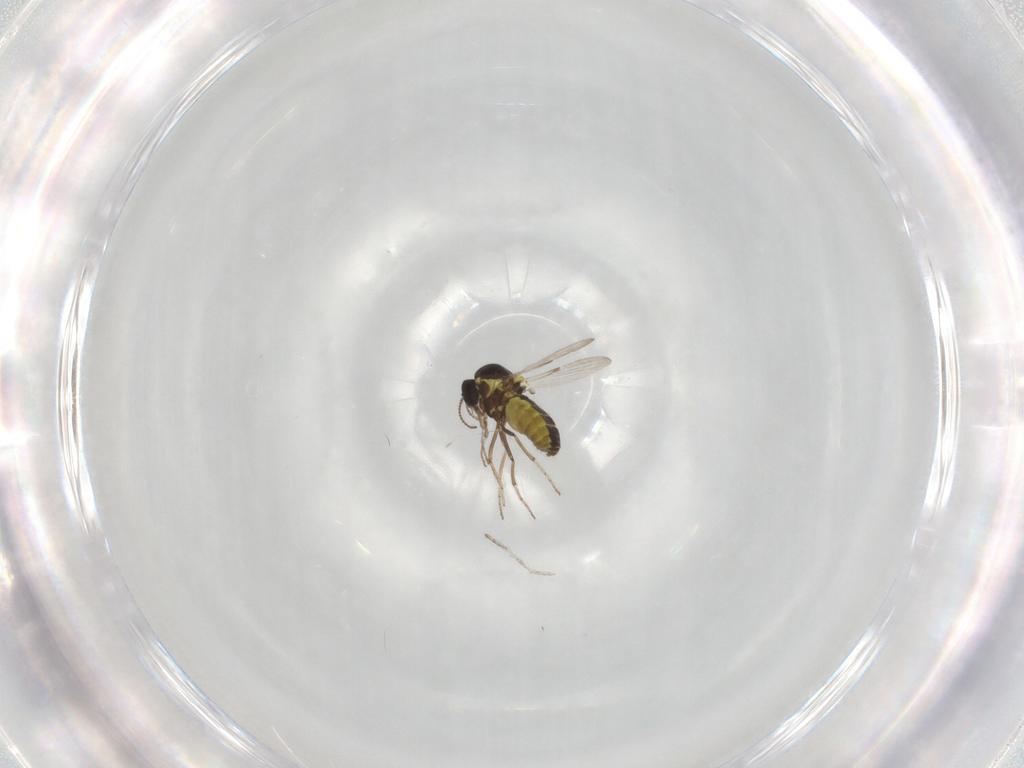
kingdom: Animalia
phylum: Arthropoda
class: Insecta
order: Diptera
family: Ceratopogonidae
